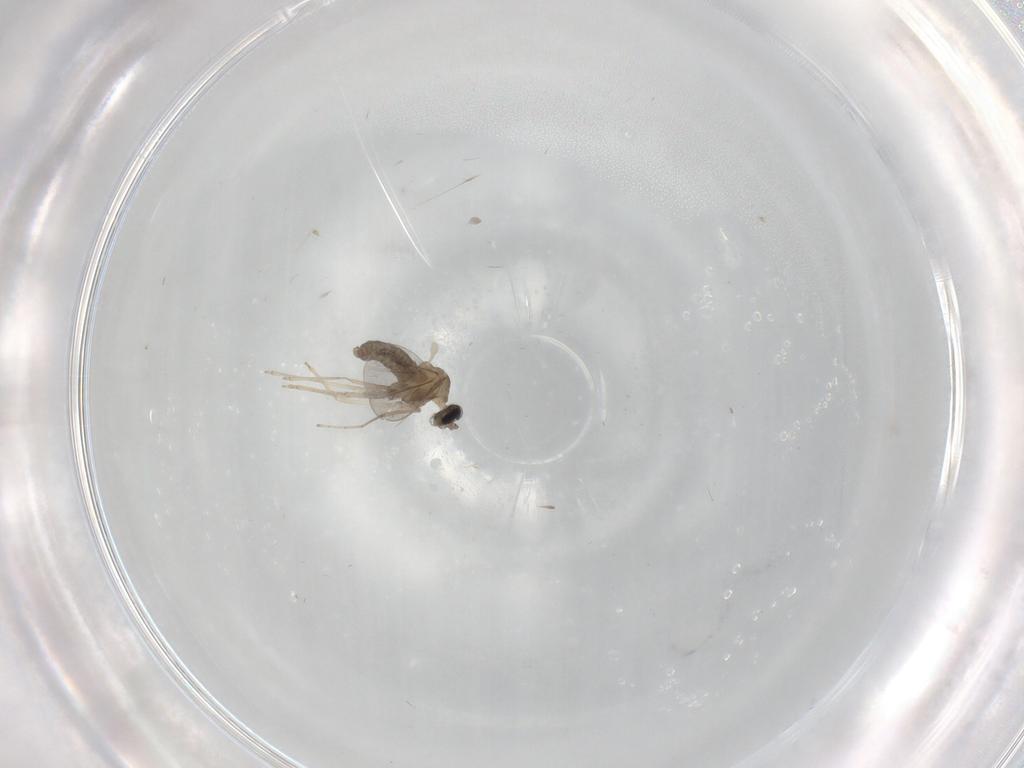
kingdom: Animalia
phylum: Arthropoda
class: Insecta
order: Diptera
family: Cecidomyiidae
